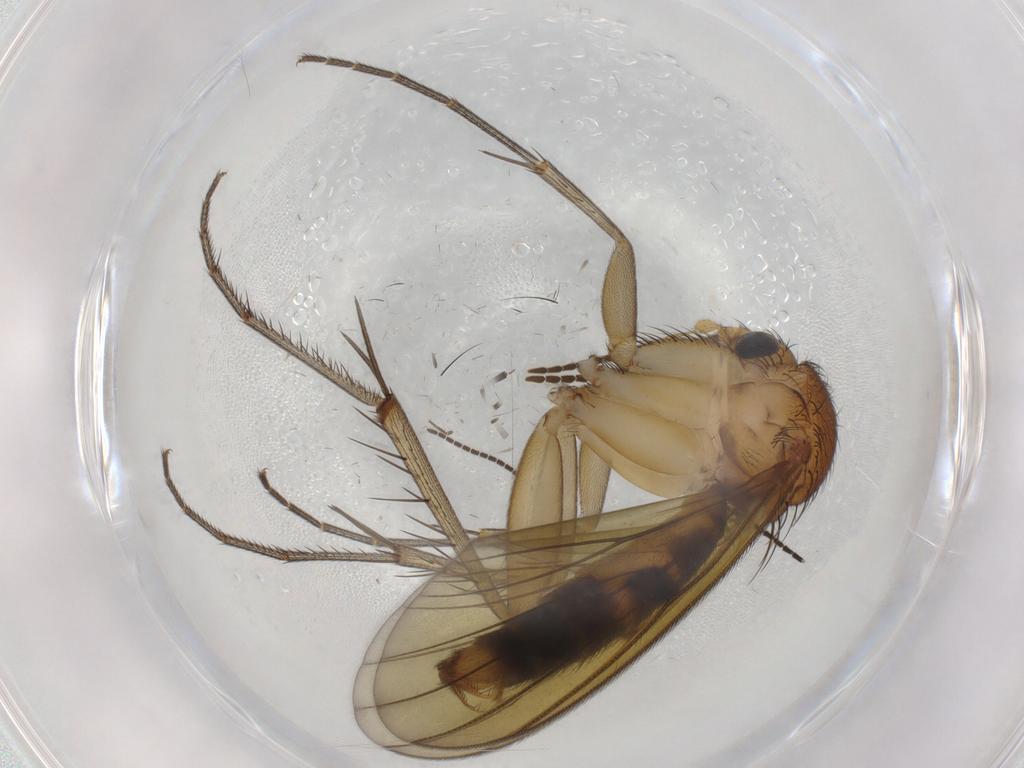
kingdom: Animalia
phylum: Arthropoda
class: Insecta
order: Diptera
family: Sciaridae
